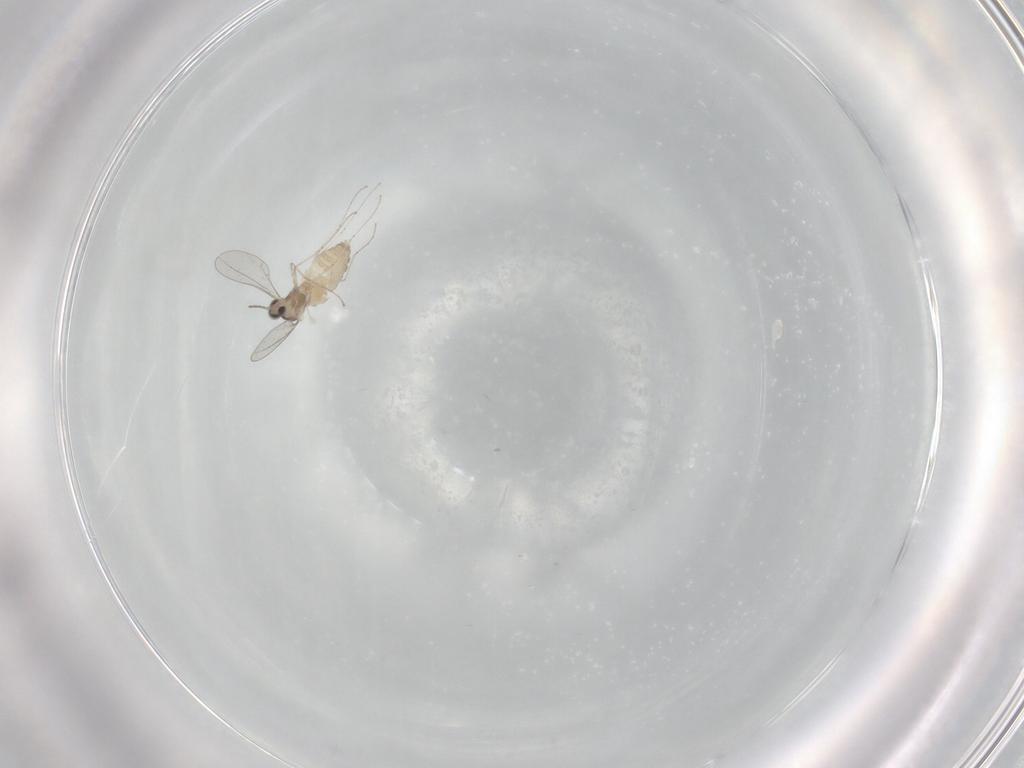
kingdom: Animalia
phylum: Arthropoda
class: Insecta
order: Diptera
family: Cecidomyiidae
